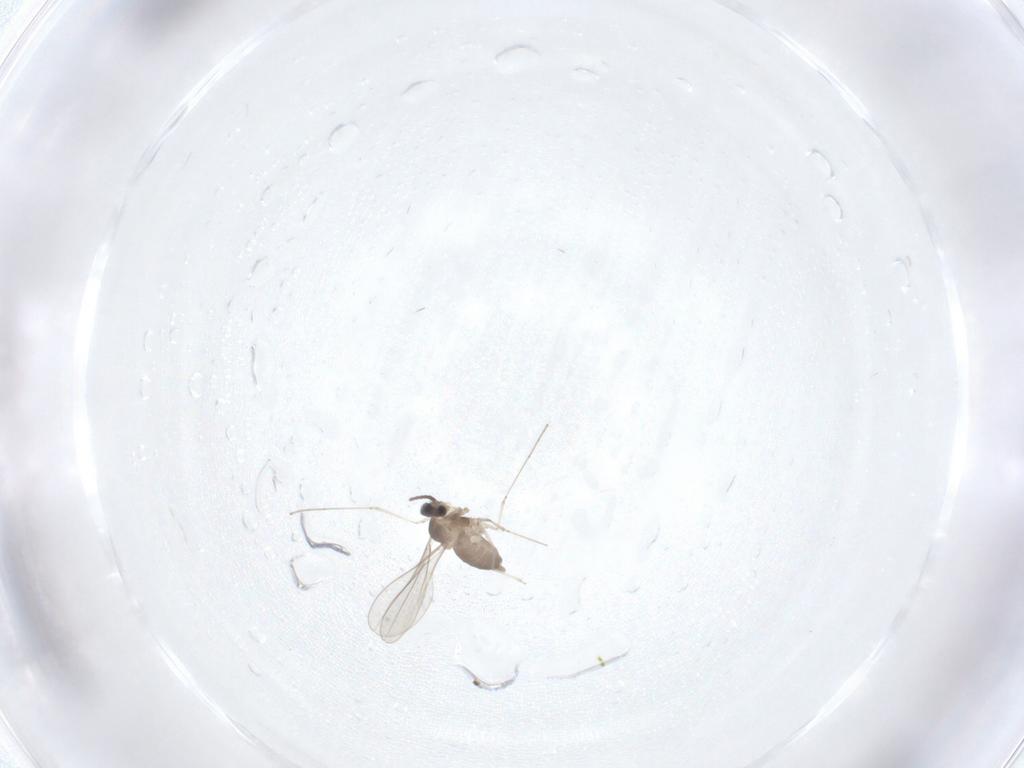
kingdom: Animalia
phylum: Arthropoda
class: Insecta
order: Diptera
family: Cecidomyiidae
